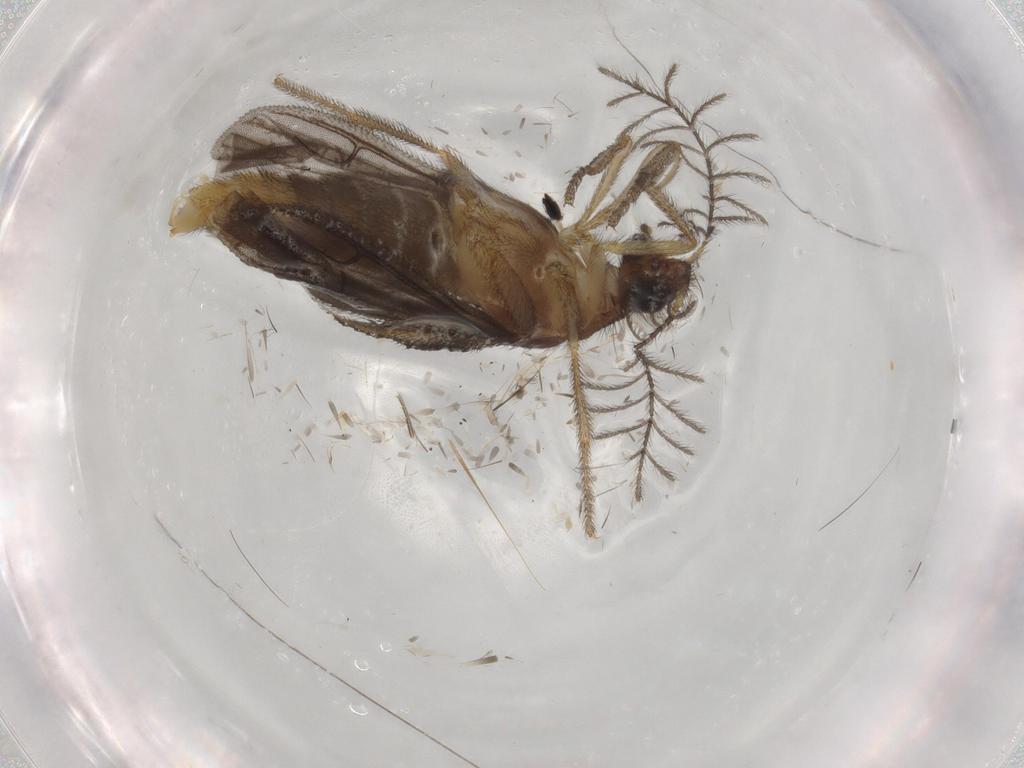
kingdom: Animalia
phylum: Arthropoda
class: Insecta
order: Coleoptera
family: Phengodidae
